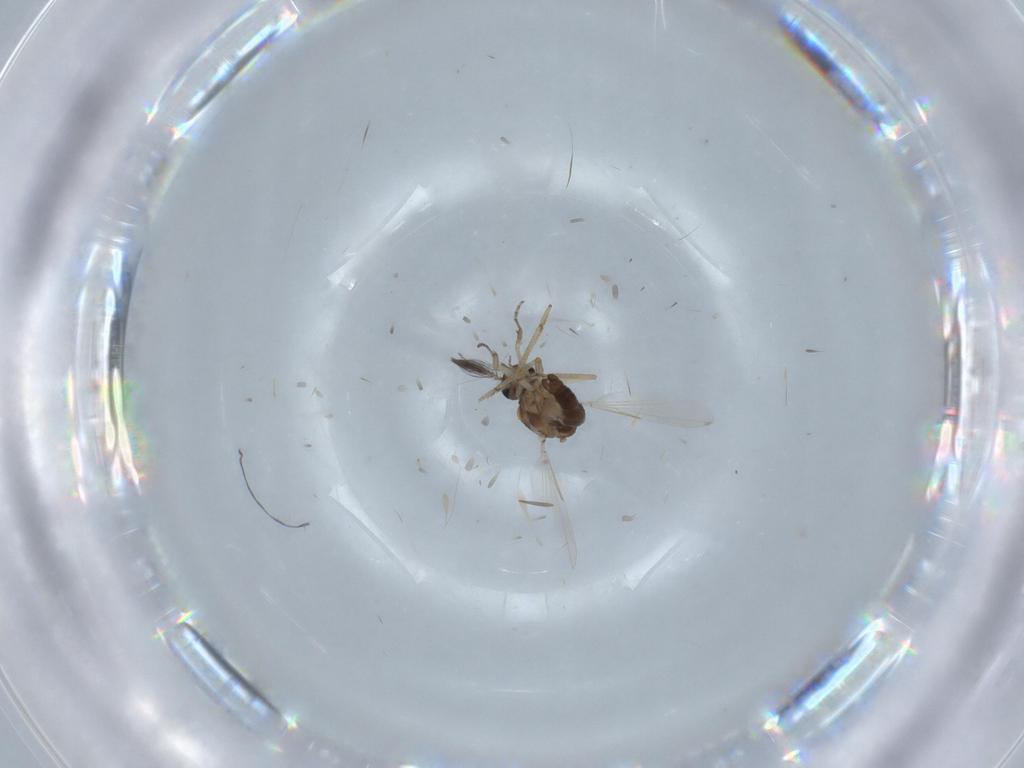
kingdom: Animalia
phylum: Arthropoda
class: Insecta
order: Diptera
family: Ceratopogonidae
